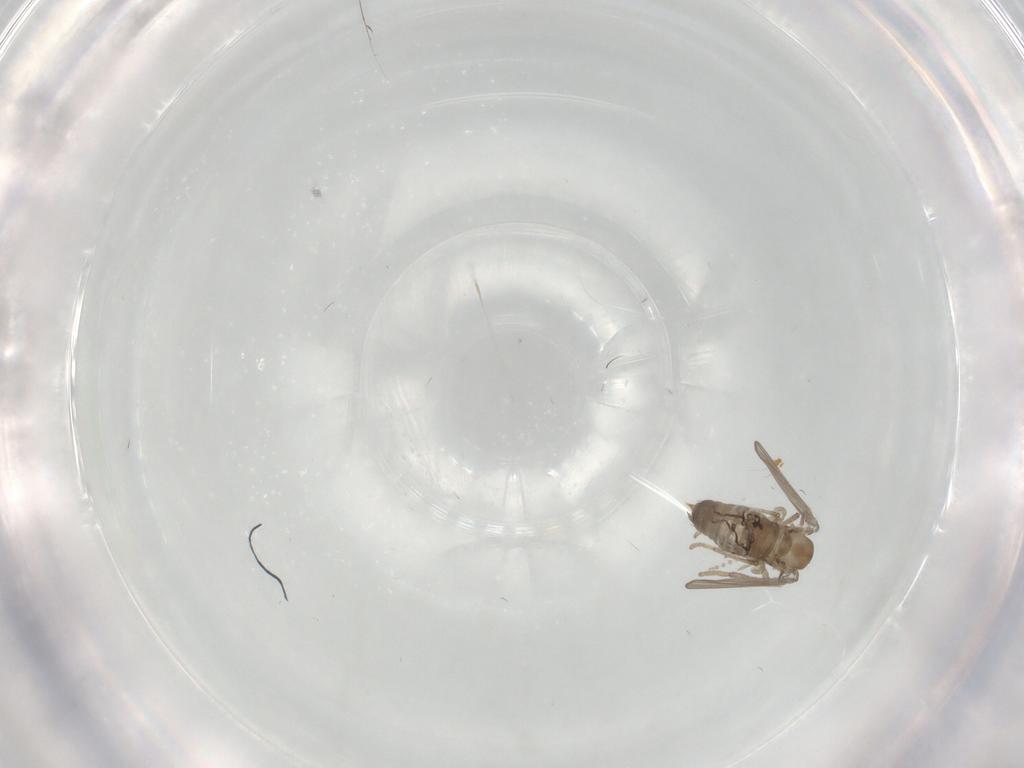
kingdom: Animalia
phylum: Arthropoda
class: Insecta
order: Diptera
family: Psychodidae
